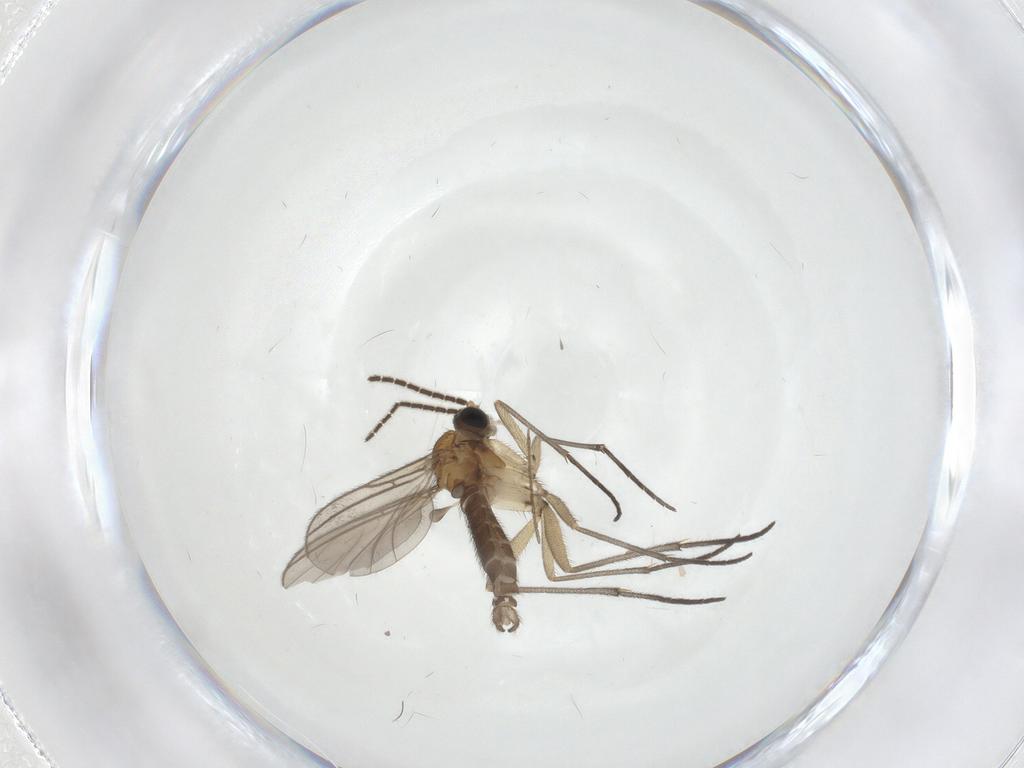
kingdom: Animalia
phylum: Arthropoda
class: Insecta
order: Diptera
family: Sciaridae
